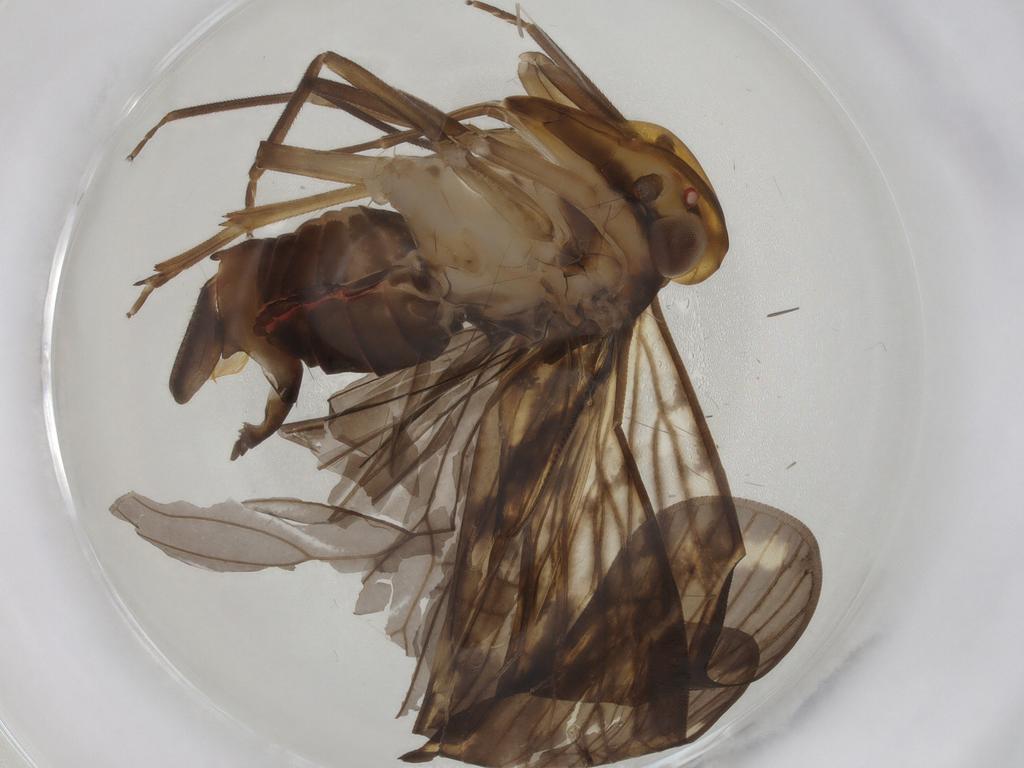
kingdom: Animalia
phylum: Arthropoda
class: Insecta
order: Hemiptera
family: Cixiidae
